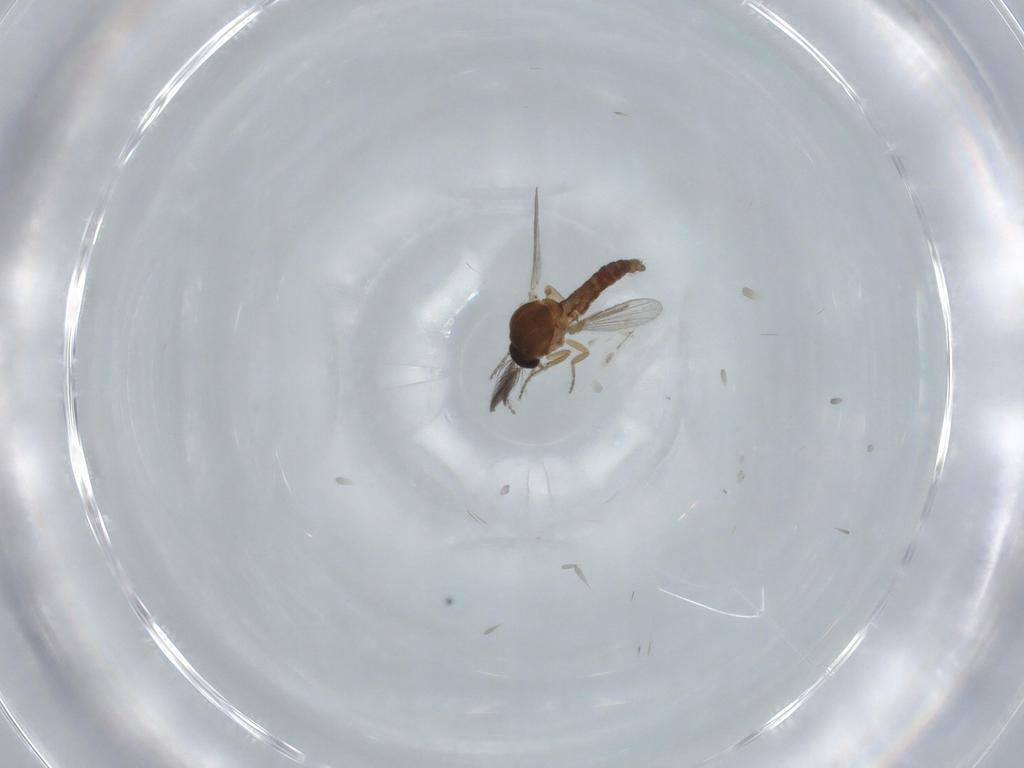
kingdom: Animalia
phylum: Arthropoda
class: Insecta
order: Diptera
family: Ceratopogonidae
